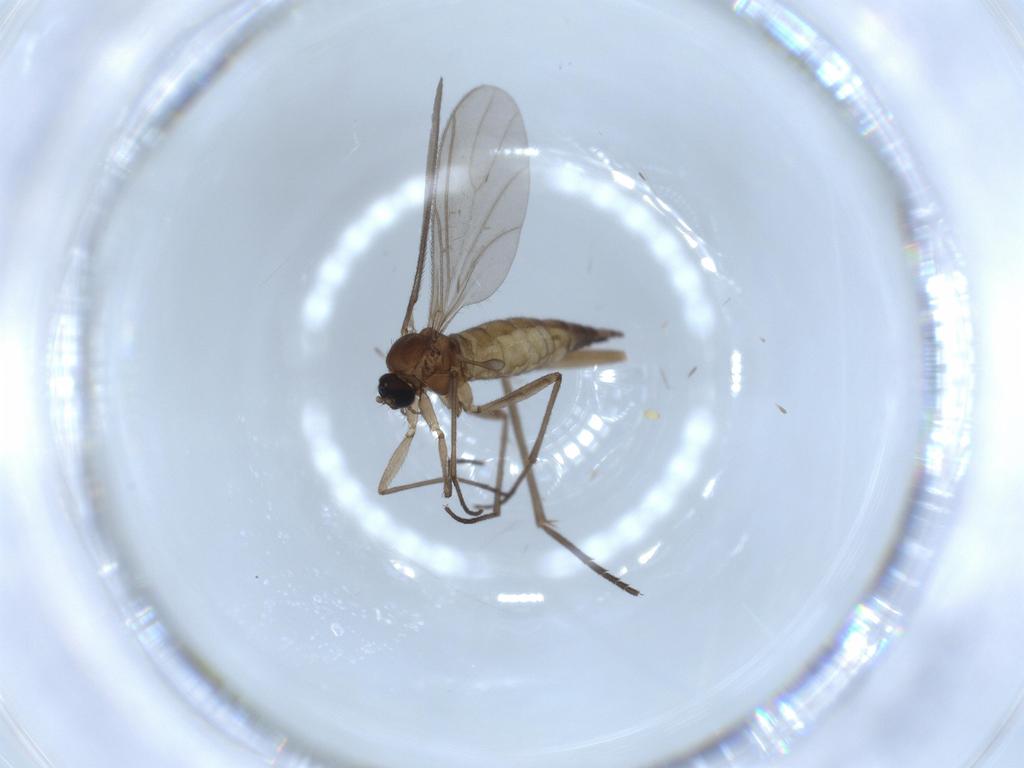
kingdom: Animalia
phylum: Arthropoda
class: Insecta
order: Diptera
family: Sciaridae
